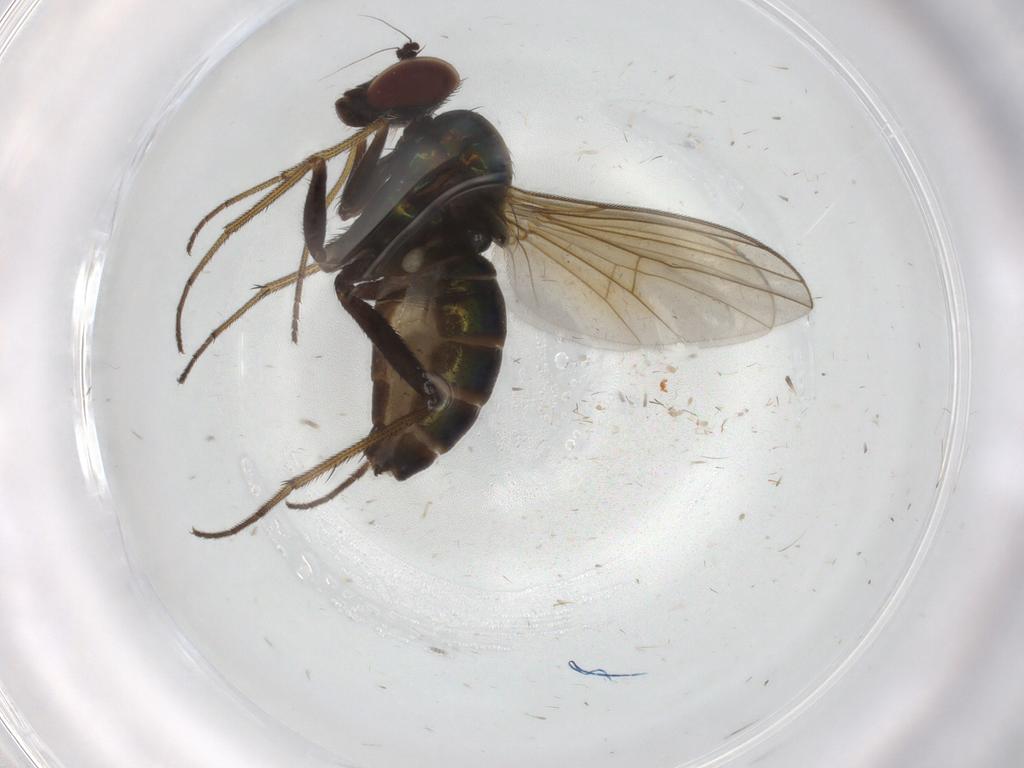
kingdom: Animalia
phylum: Arthropoda
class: Insecta
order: Diptera
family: Dolichopodidae
